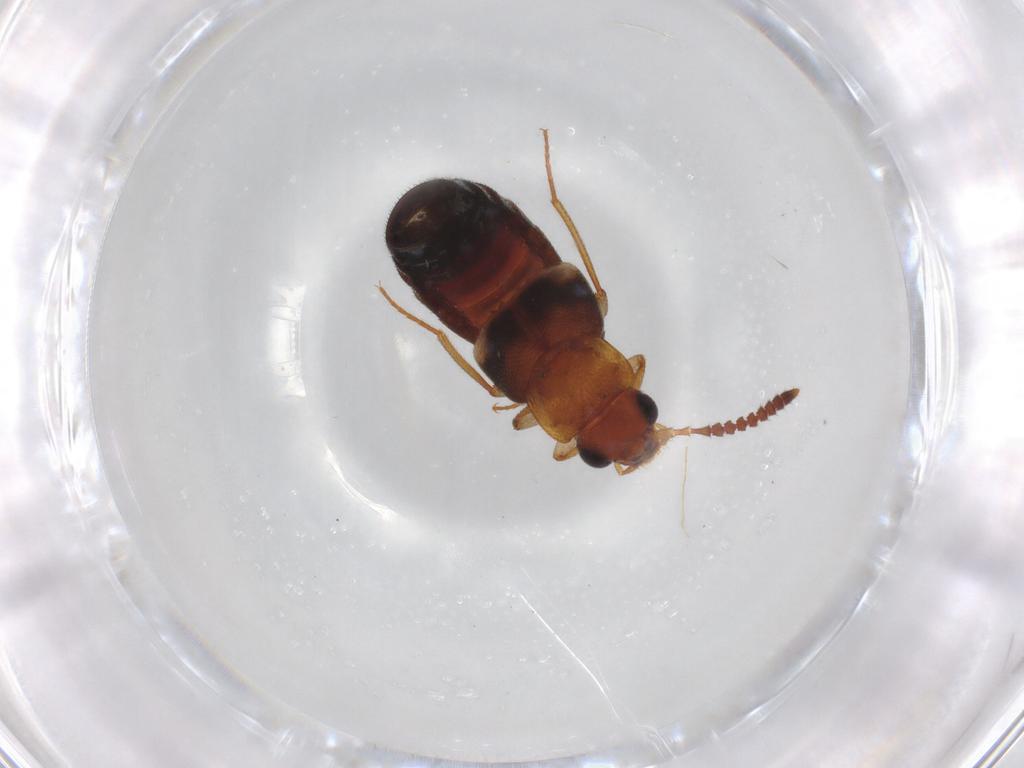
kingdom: Animalia
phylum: Arthropoda
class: Insecta
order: Coleoptera
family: Staphylinidae
